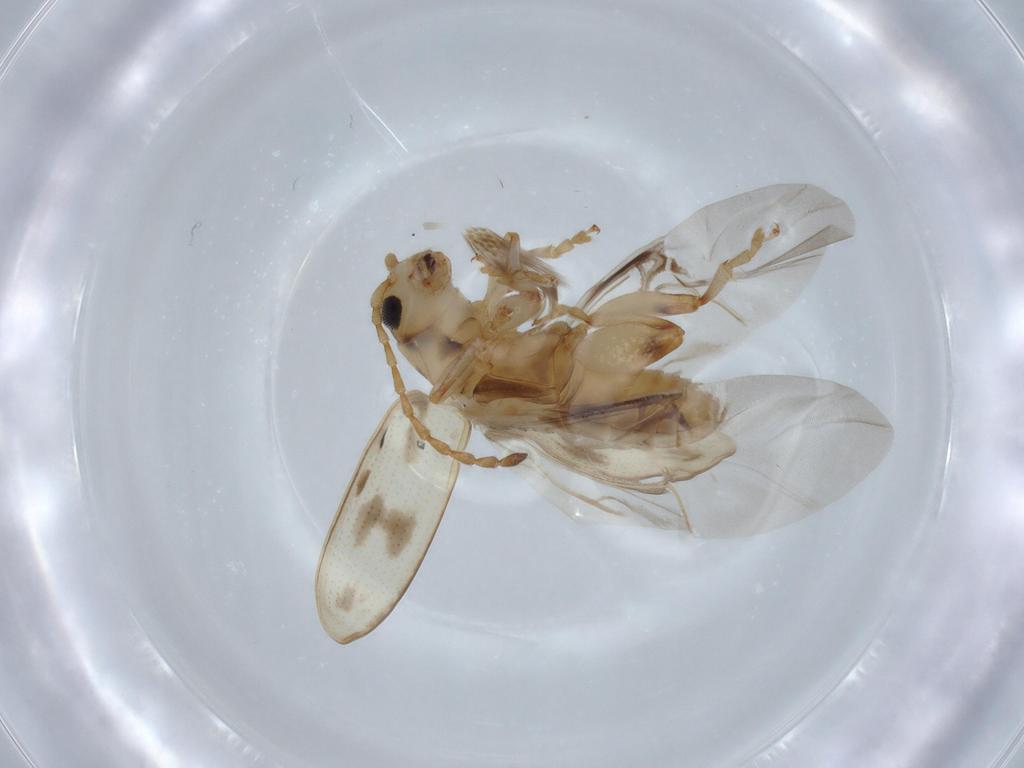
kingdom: Animalia
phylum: Arthropoda
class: Insecta
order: Coleoptera
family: Chrysomelidae
